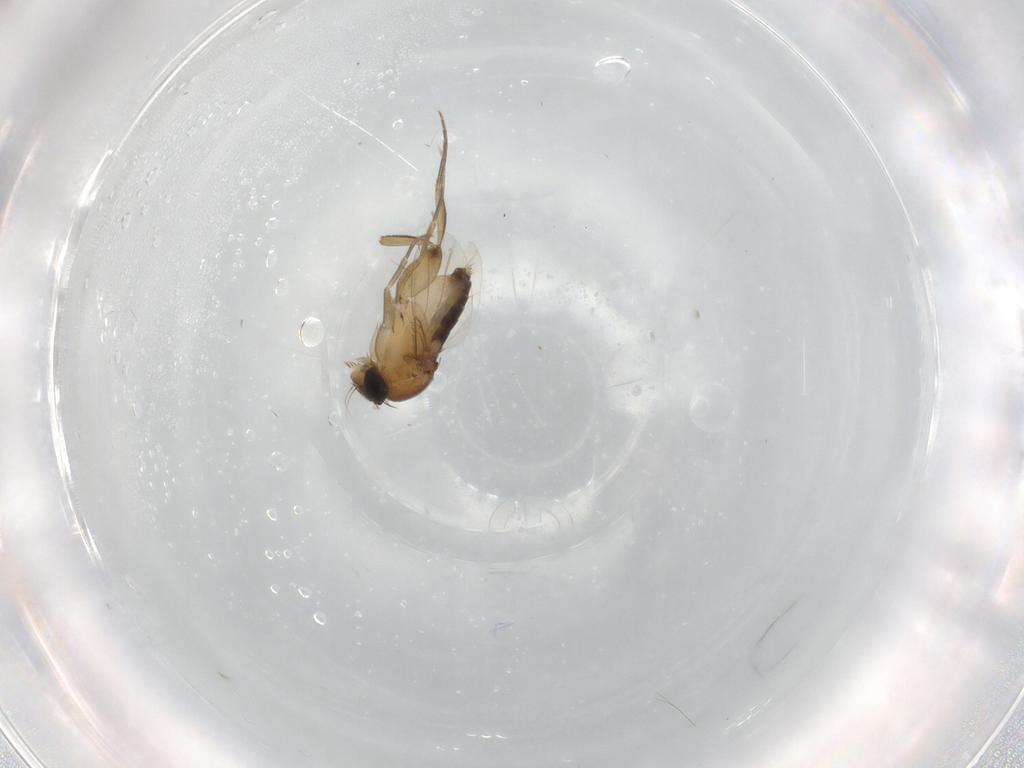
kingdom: Animalia
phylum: Arthropoda
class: Insecta
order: Diptera
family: Phoridae
